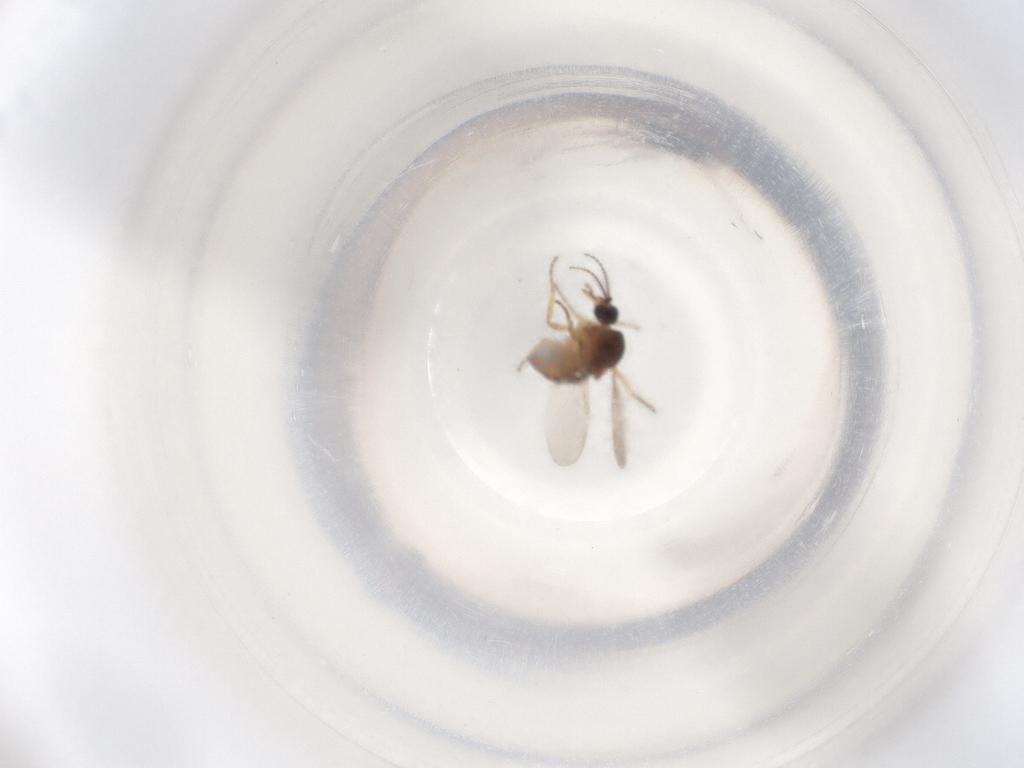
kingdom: Animalia
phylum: Arthropoda
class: Insecta
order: Diptera
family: Ceratopogonidae
